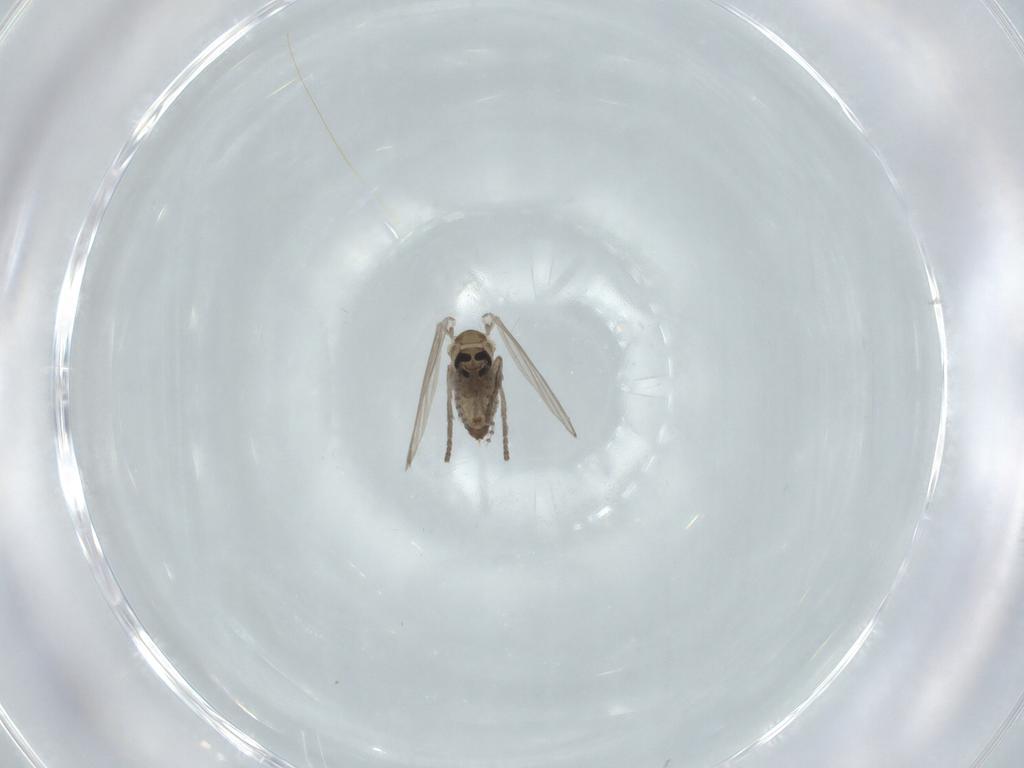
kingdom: Animalia
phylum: Arthropoda
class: Insecta
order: Diptera
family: Psychodidae
